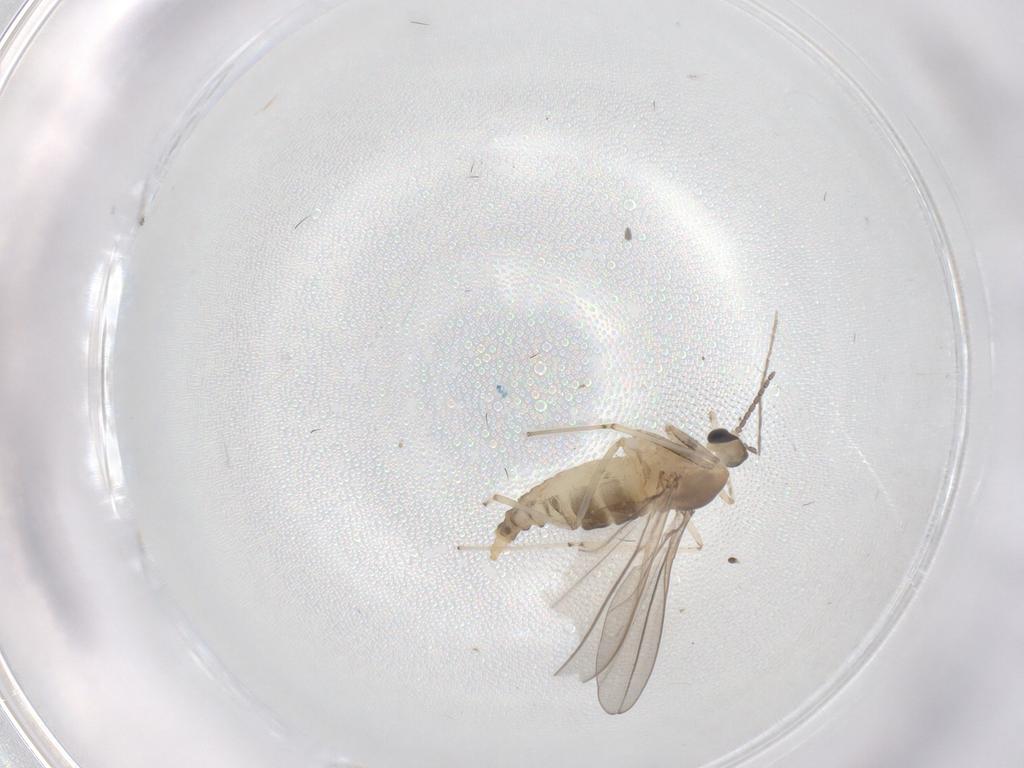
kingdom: Animalia
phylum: Arthropoda
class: Insecta
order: Diptera
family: Cecidomyiidae
